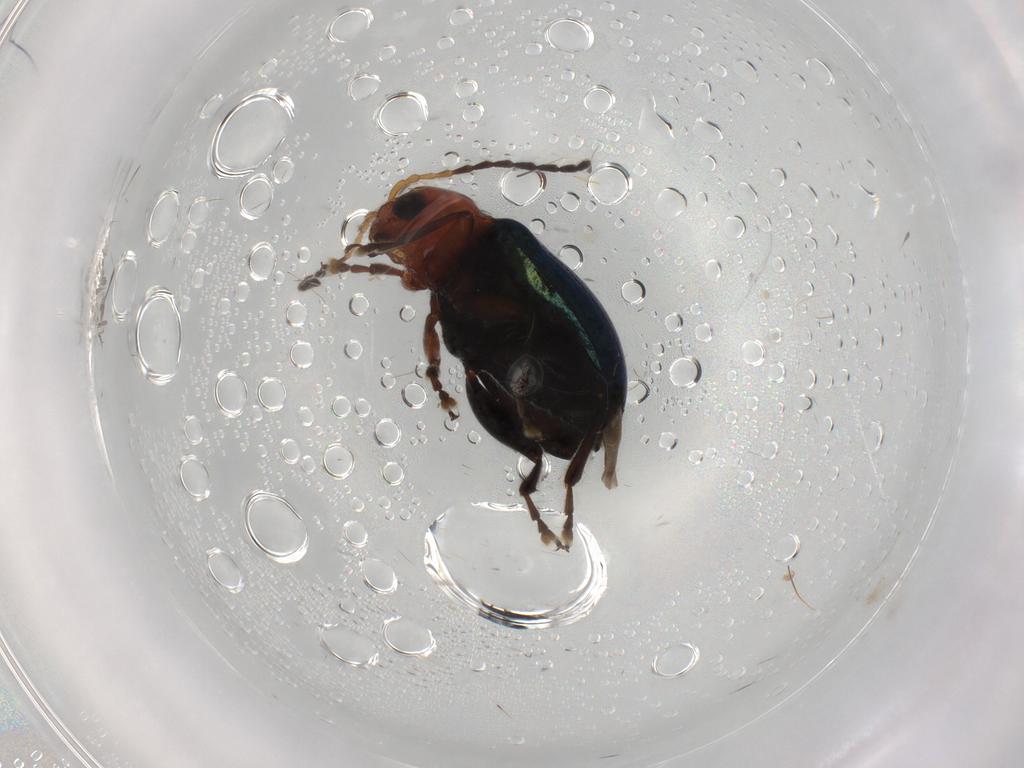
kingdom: Animalia
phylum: Arthropoda
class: Insecta
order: Coleoptera
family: Chrysomelidae
